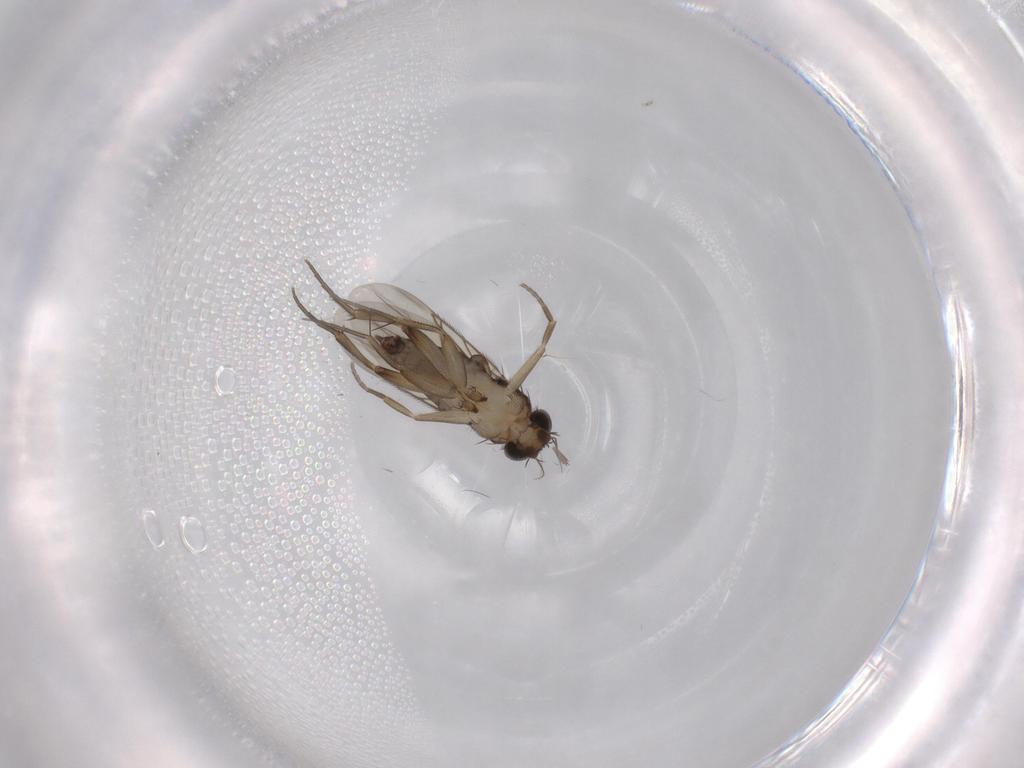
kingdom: Animalia
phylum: Arthropoda
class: Insecta
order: Diptera
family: Phoridae
